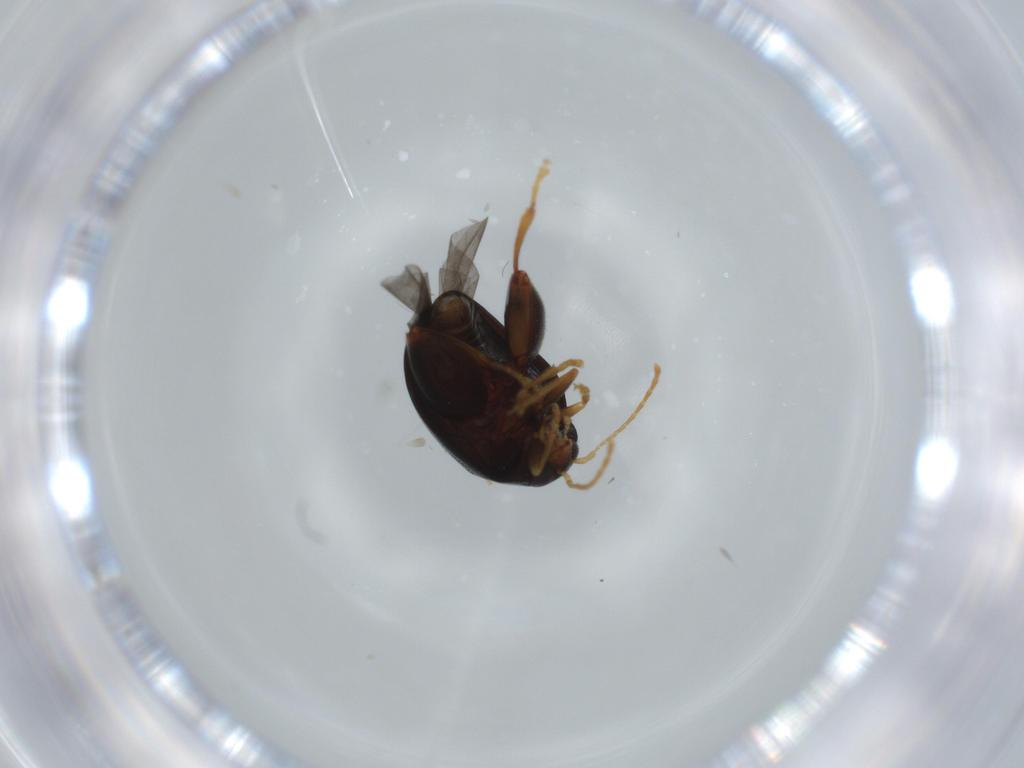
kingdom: Animalia
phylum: Arthropoda
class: Insecta
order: Coleoptera
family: Chrysomelidae
